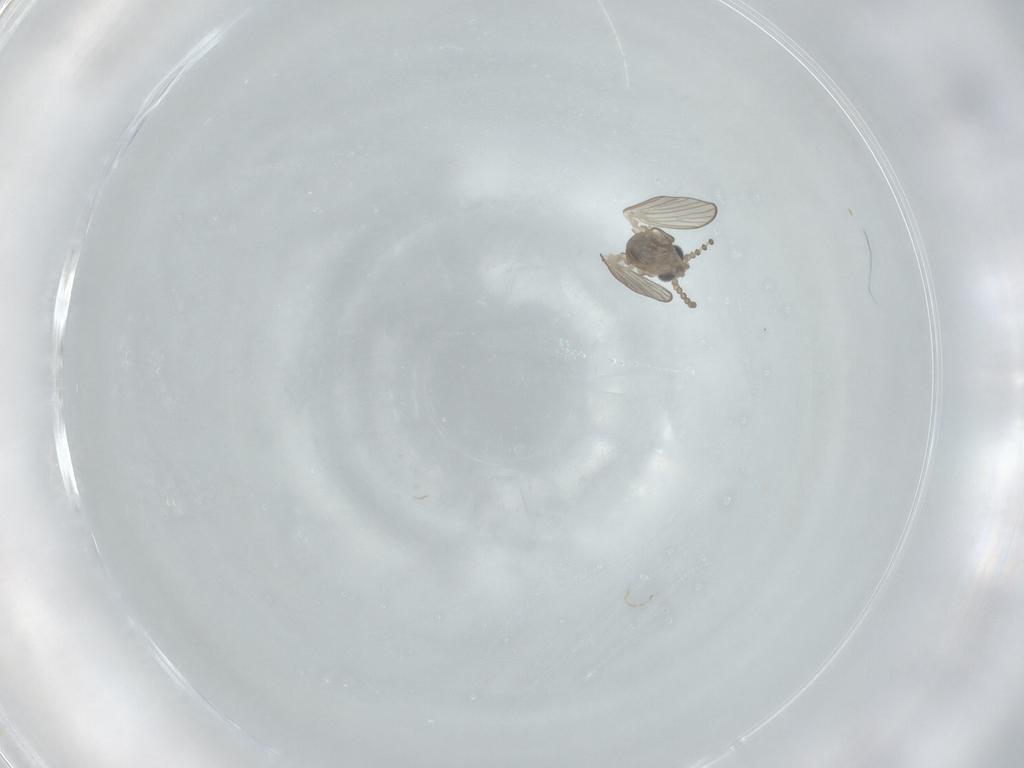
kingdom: Animalia
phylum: Arthropoda
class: Insecta
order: Diptera
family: Psychodidae
